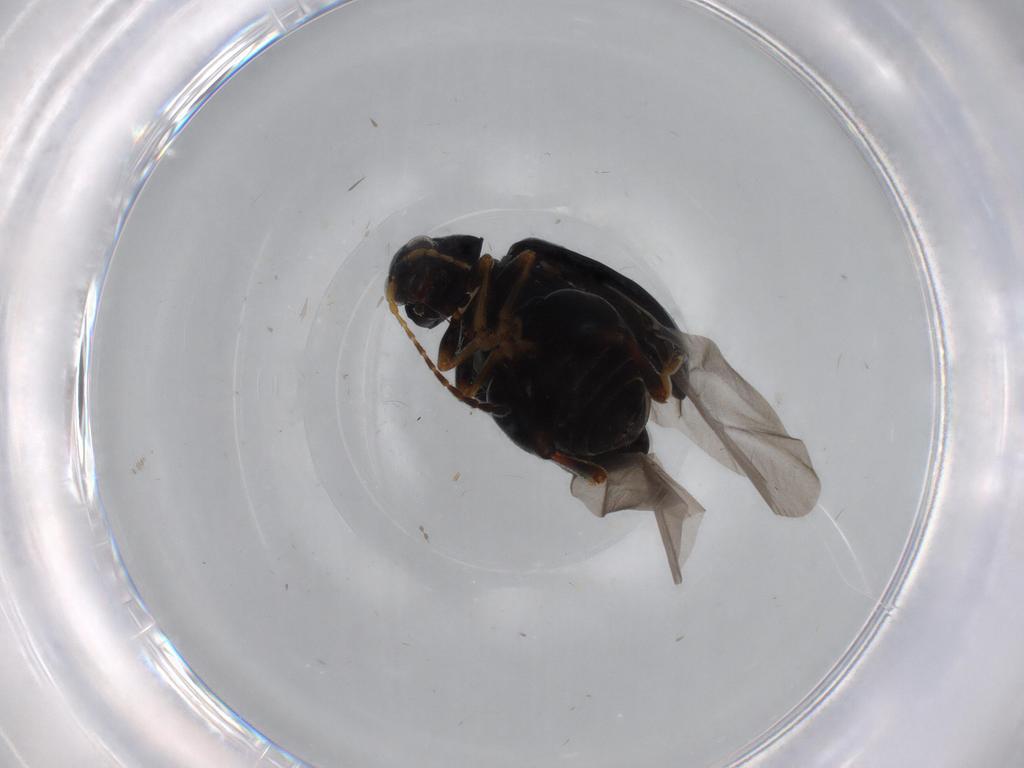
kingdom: Animalia
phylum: Arthropoda
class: Insecta
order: Coleoptera
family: Chrysomelidae
